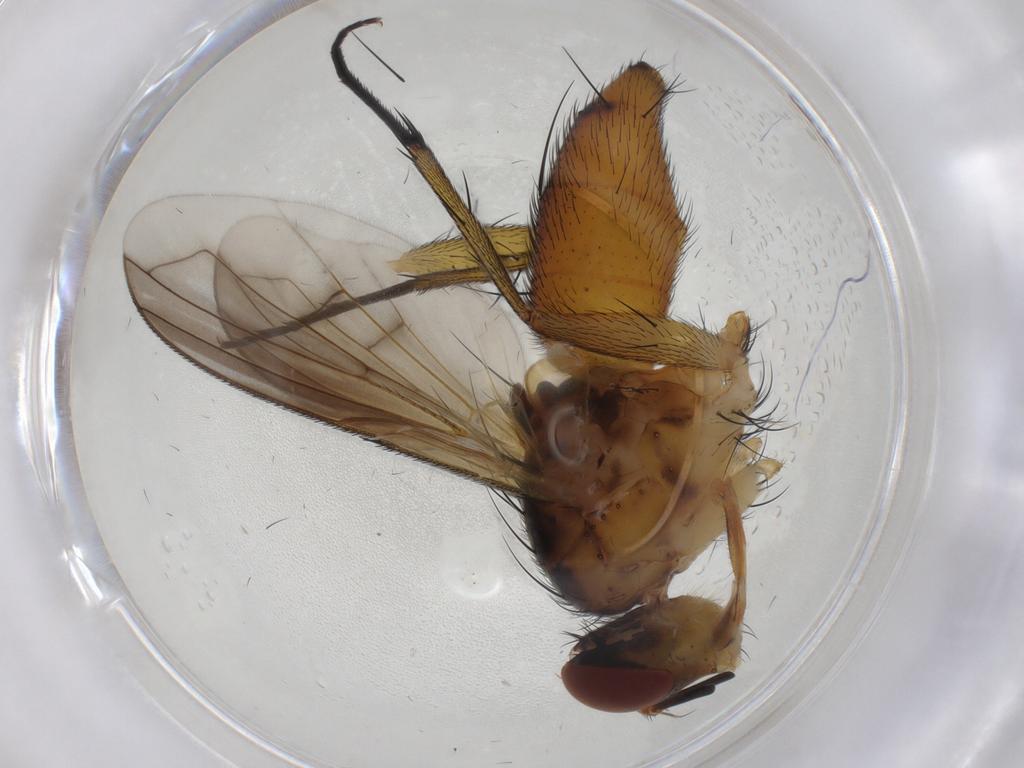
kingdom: Animalia
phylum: Arthropoda
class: Insecta
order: Diptera
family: Tachinidae
